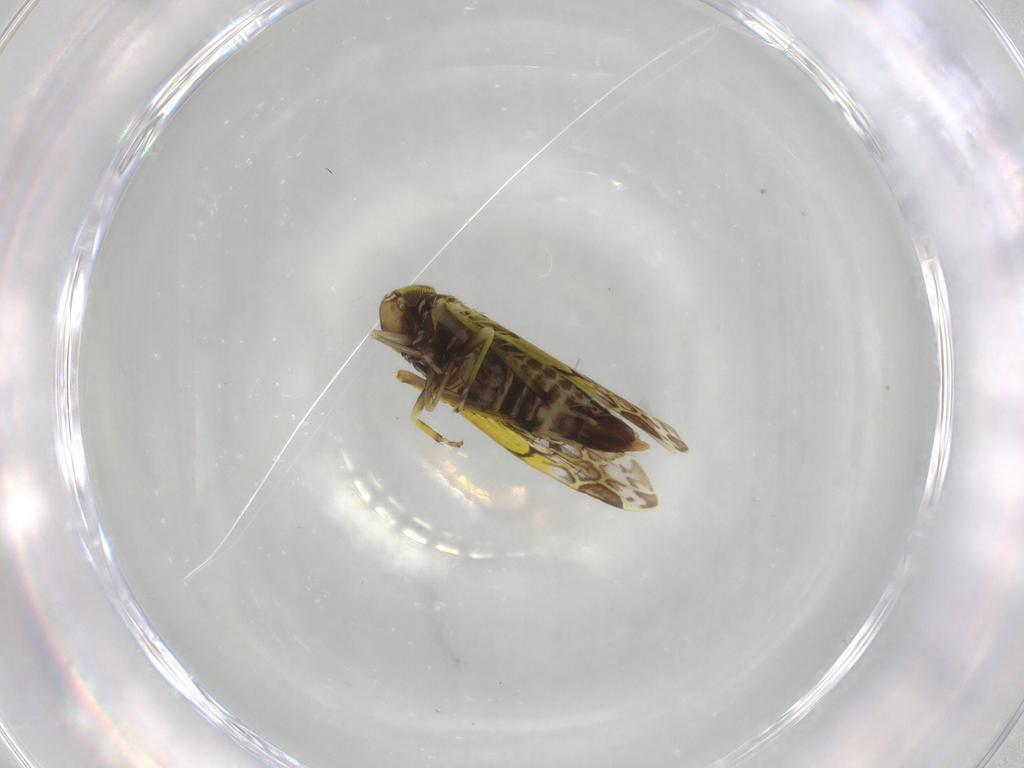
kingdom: Animalia
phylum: Arthropoda
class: Insecta
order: Hemiptera
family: Cicadellidae
